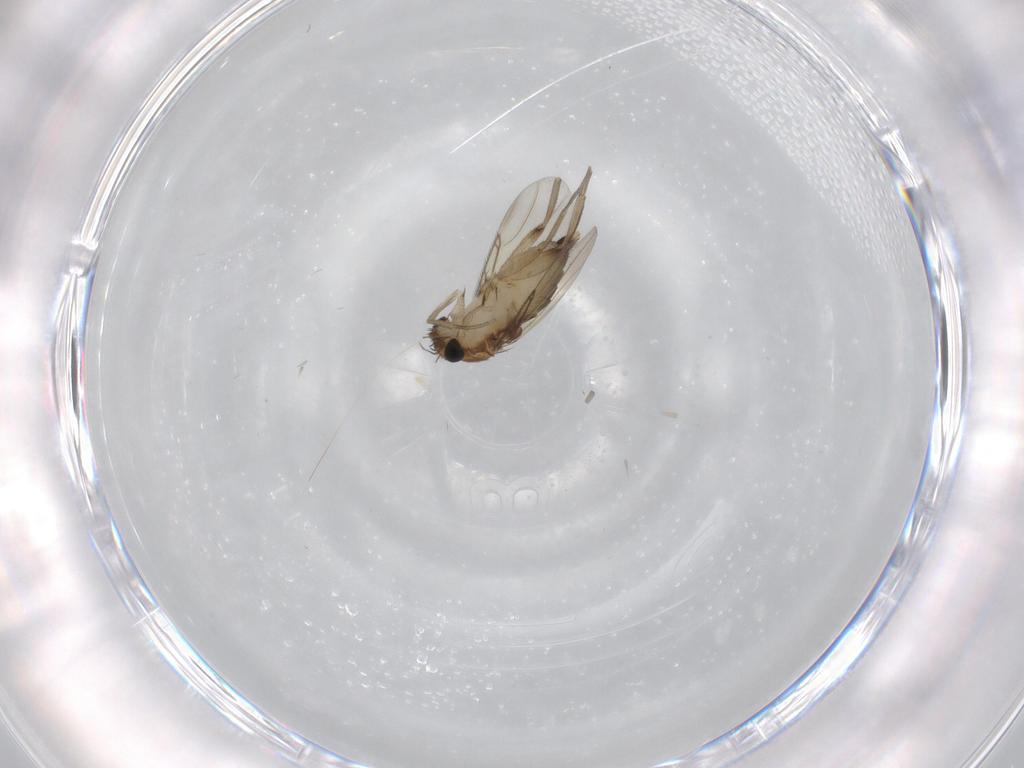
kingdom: Animalia
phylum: Arthropoda
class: Insecta
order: Diptera
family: Phoridae
